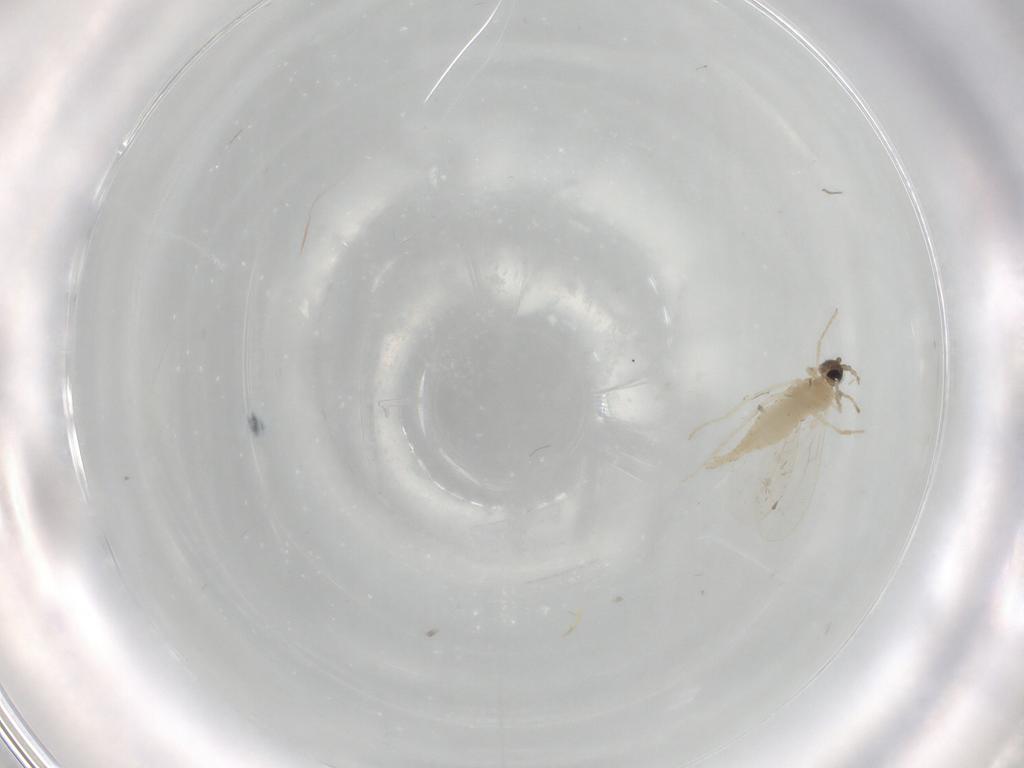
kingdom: Animalia
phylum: Arthropoda
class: Insecta
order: Diptera
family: Cecidomyiidae
